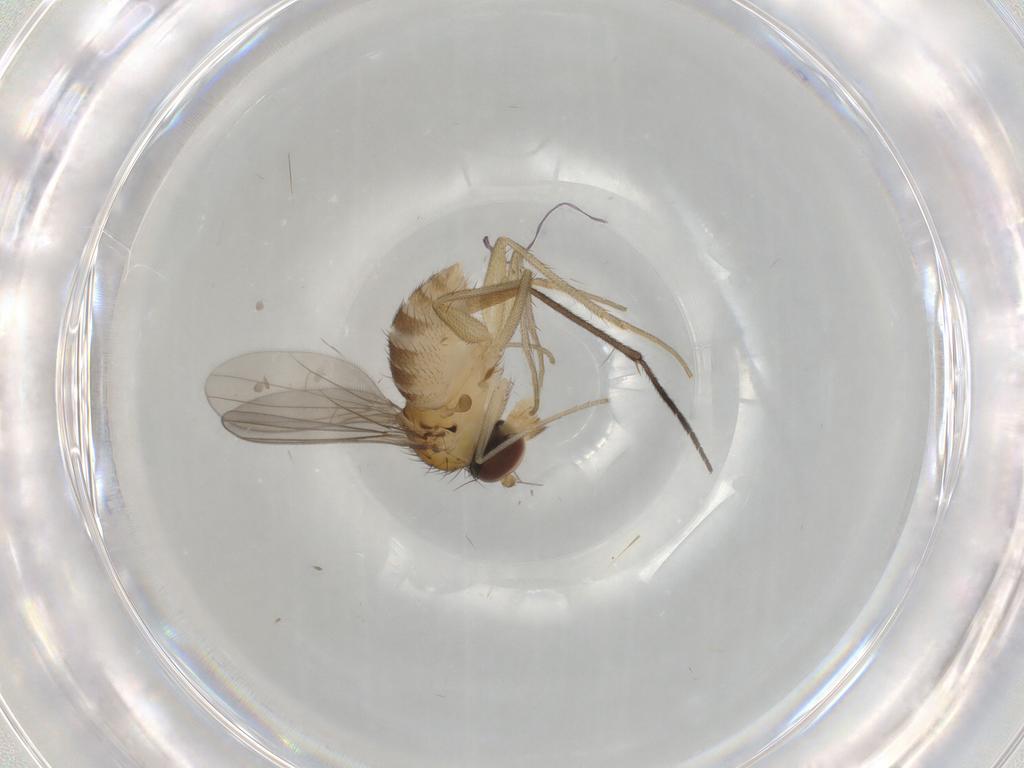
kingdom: Animalia
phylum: Arthropoda
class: Insecta
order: Diptera
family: Dolichopodidae
